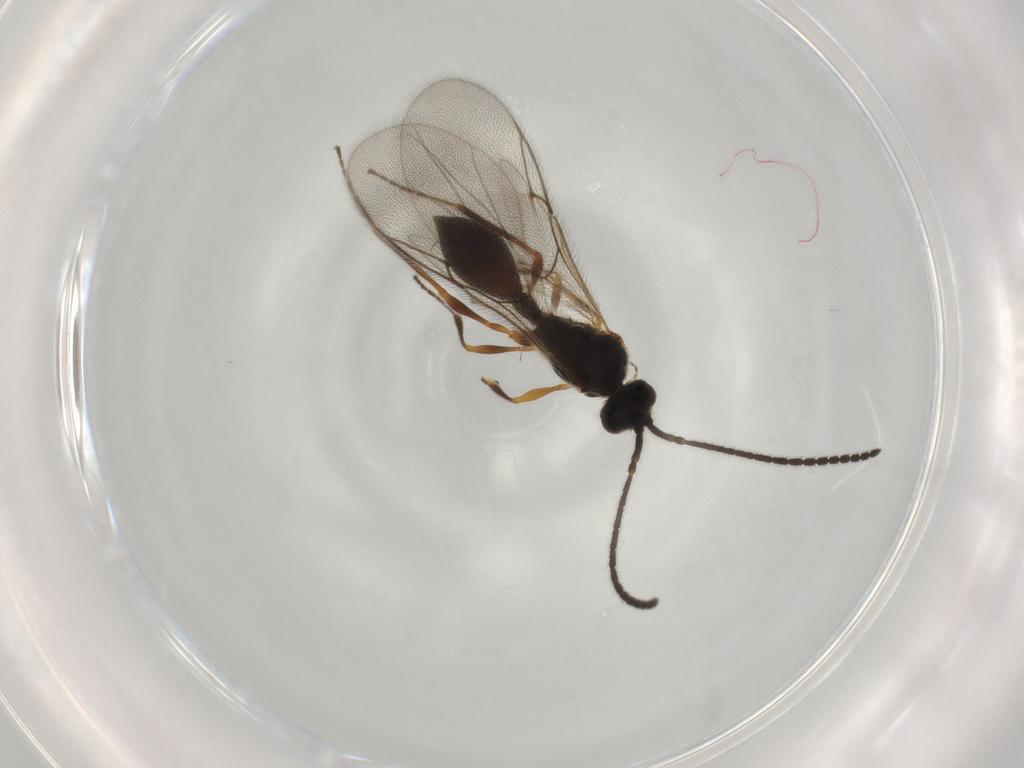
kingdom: Animalia
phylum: Arthropoda
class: Insecta
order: Hymenoptera
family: Diapriidae
